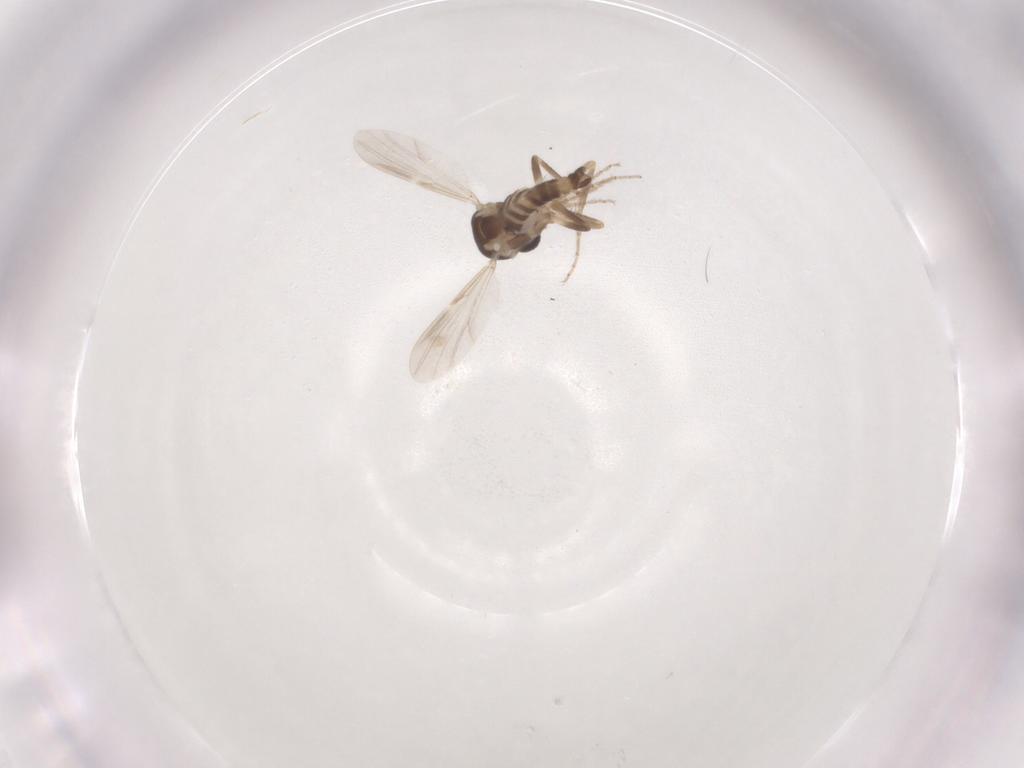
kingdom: Animalia
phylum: Arthropoda
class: Insecta
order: Diptera
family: Ceratopogonidae
